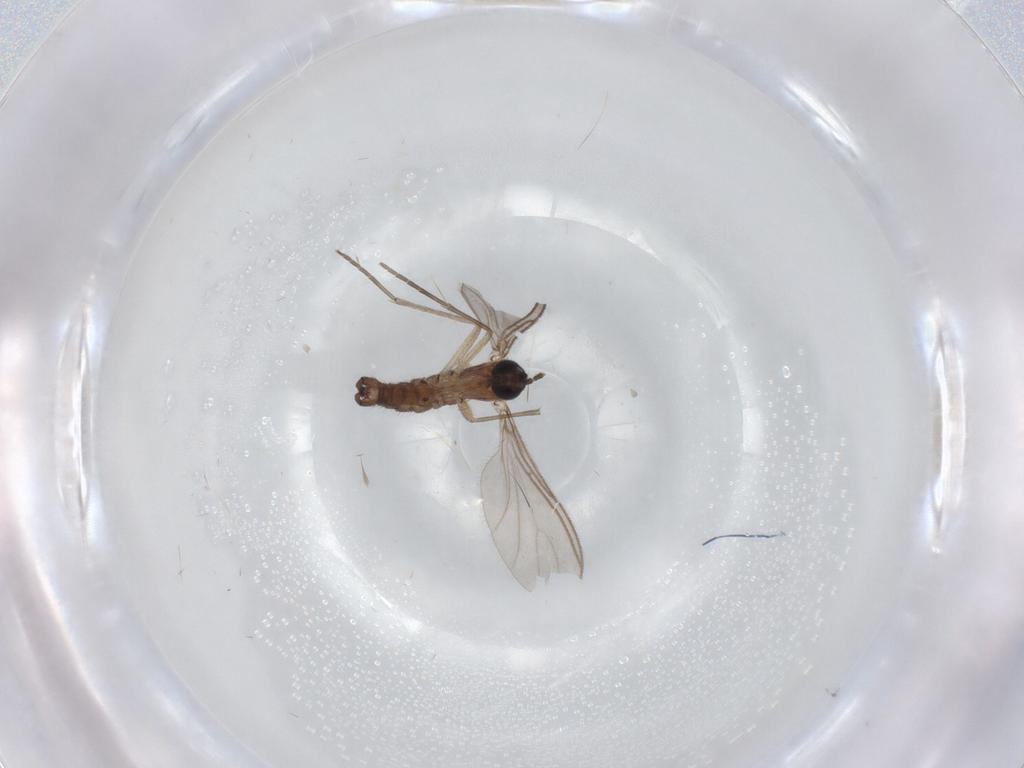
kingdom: Animalia
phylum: Arthropoda
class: Insecta
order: Diptera
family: Sciaridae
